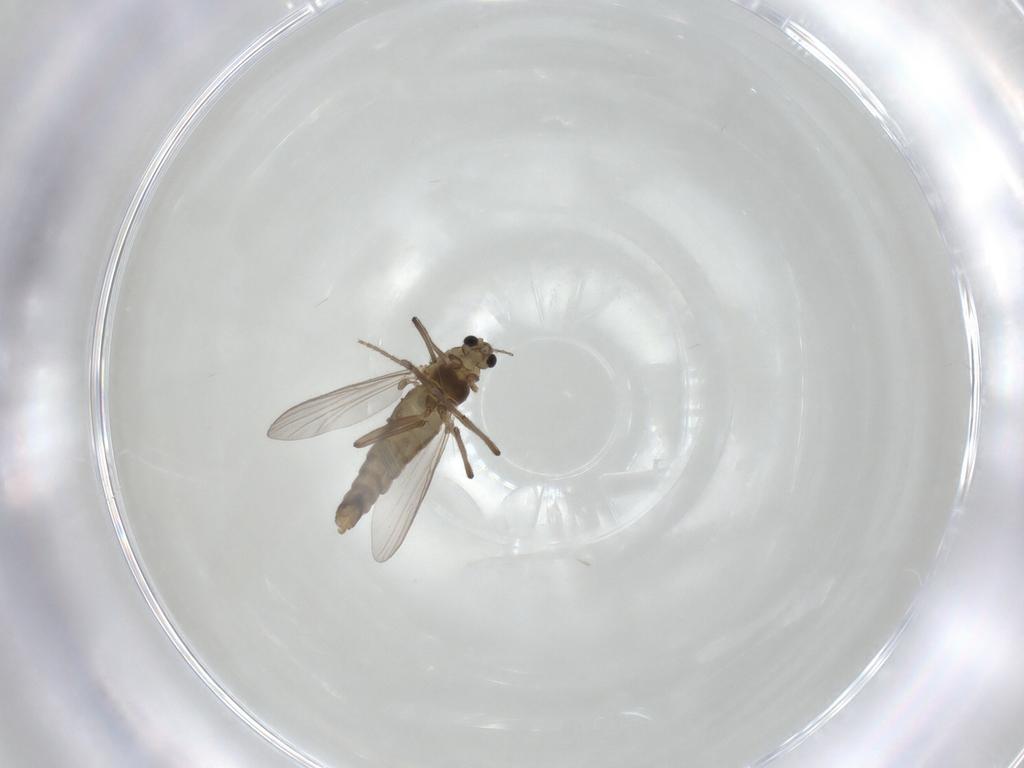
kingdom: Animalia
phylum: Arthropoda
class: Insecta
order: Diptera
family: Chironomidae
